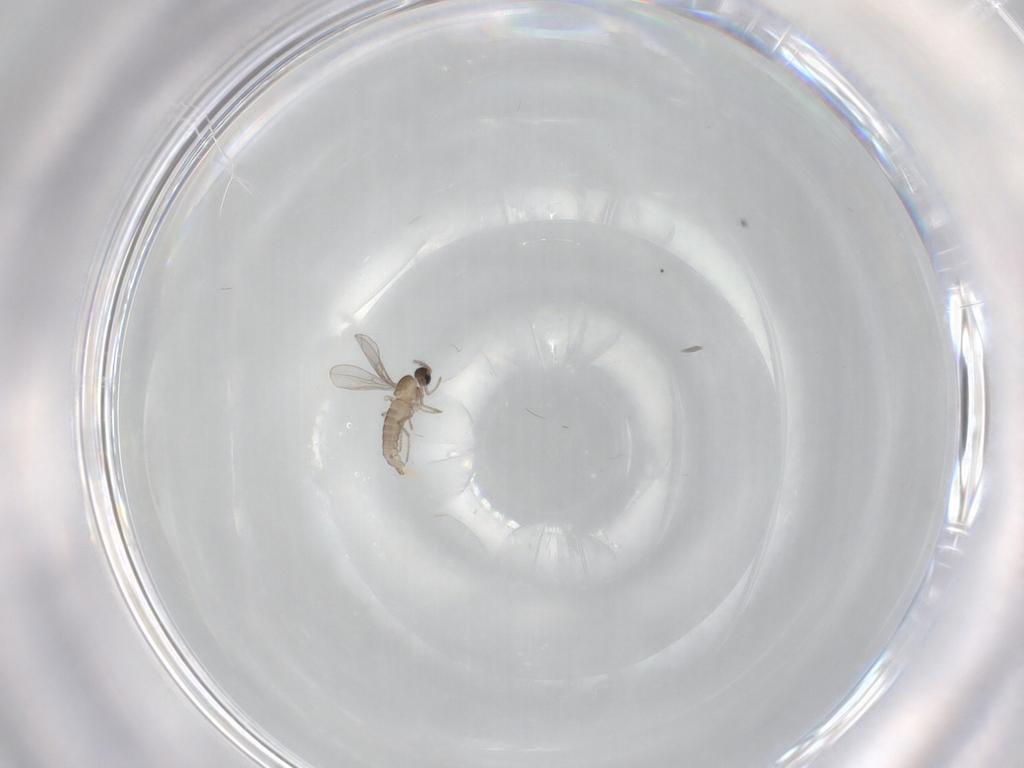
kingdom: Animalia
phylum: Arthropoda
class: Insecta
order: Diptera
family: Cecidomyiidae
